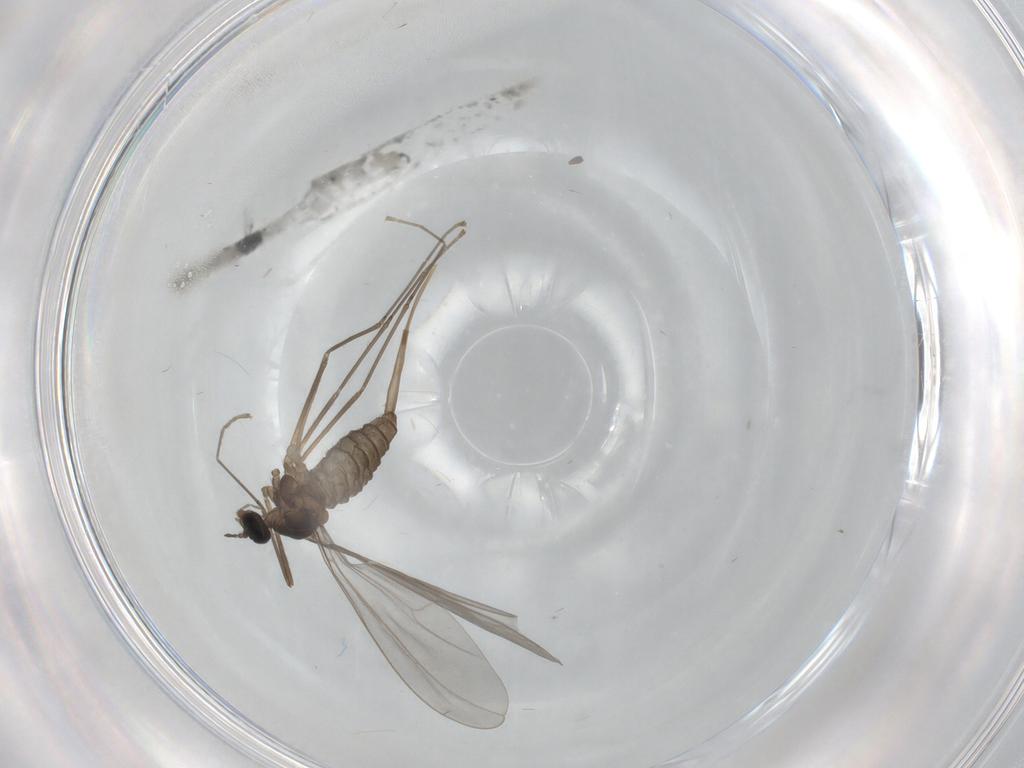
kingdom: Animalia
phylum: Arthropoda
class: Insecta
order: Diptera
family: Cecidomyiidae
